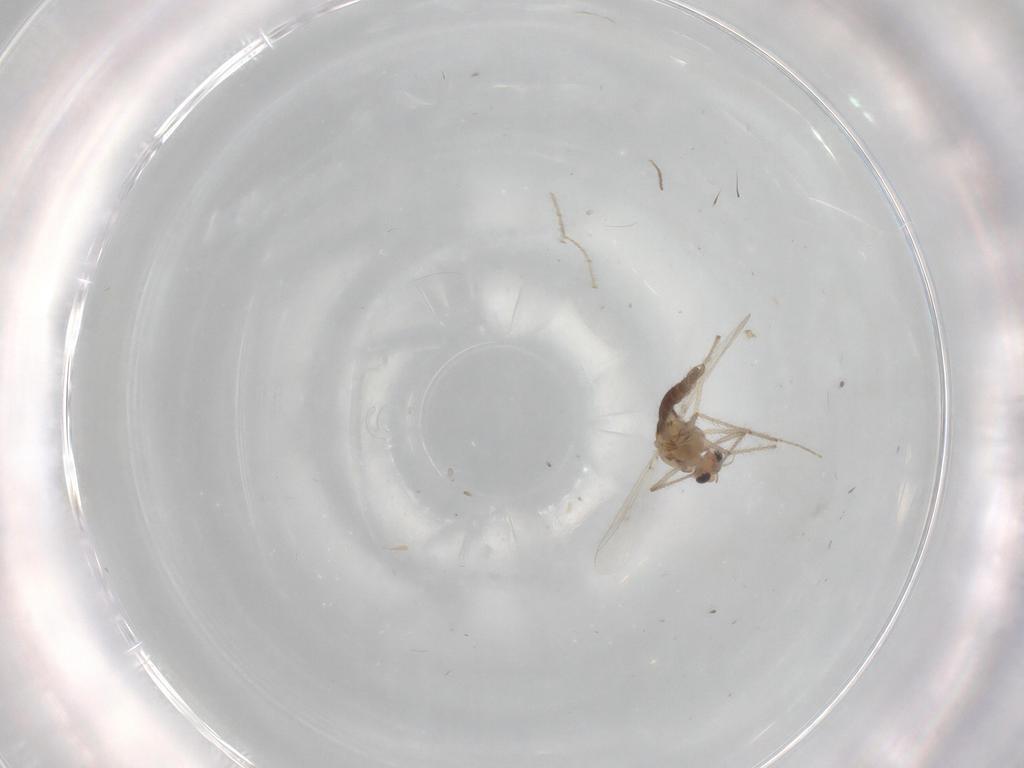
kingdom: Animalia
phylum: Arthropoda
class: Insecta
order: Diptera
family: Chironomidae
